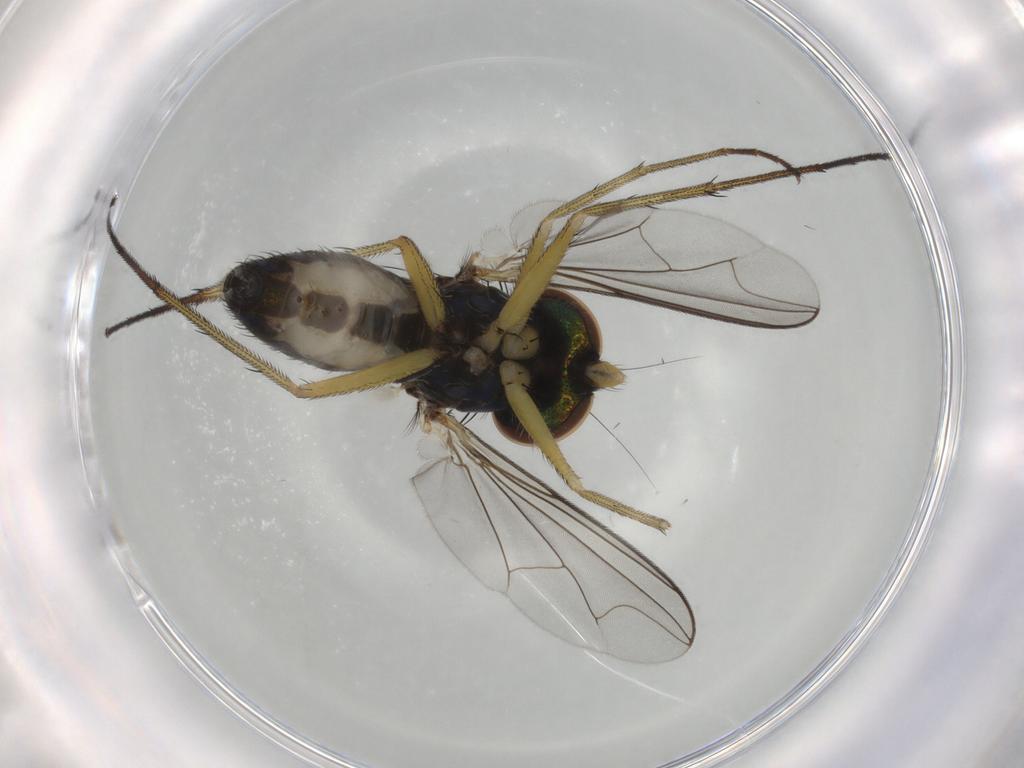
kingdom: Animalia
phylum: Arthropoda
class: Insecta
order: Diptera
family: Dolichopodidae
